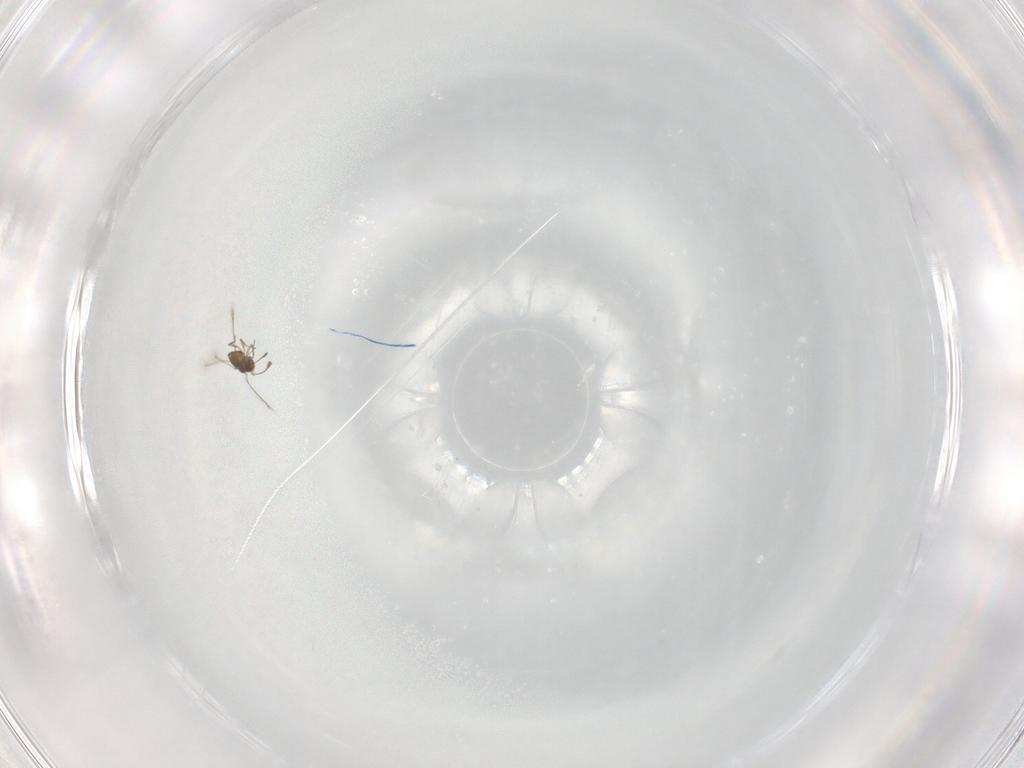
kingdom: Animalia
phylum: Arthropoda
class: Insecta
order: Hymenoptera
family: Mymaridae
